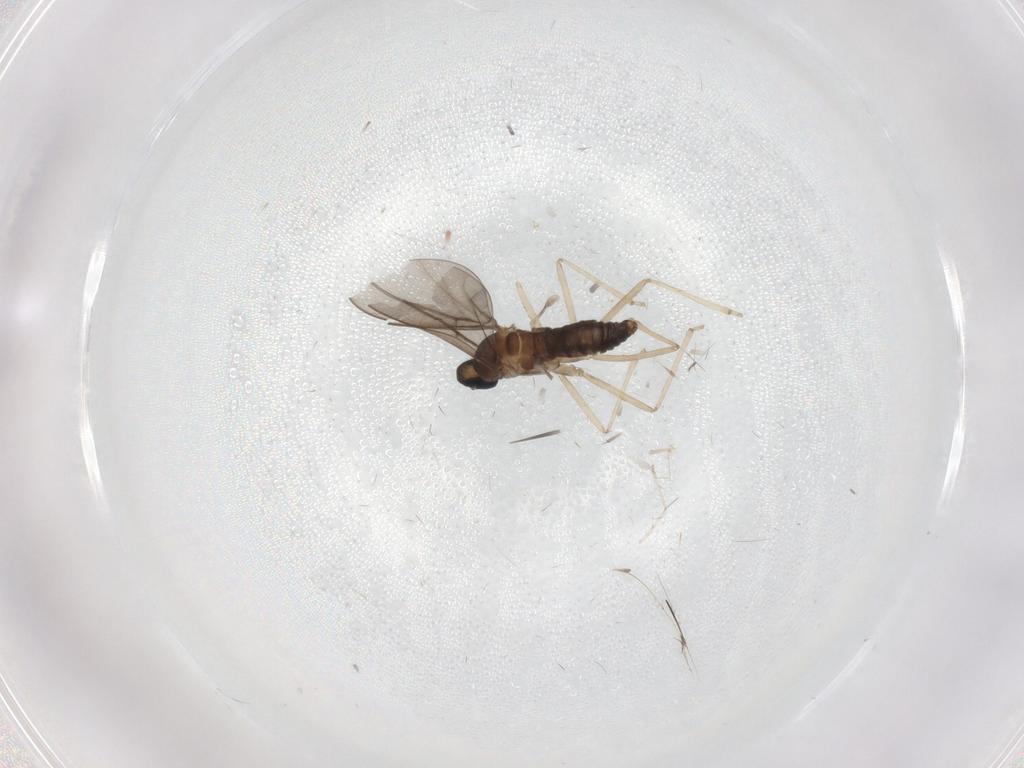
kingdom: Animalia
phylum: Arthropoda
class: Insecta
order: Diptera
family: Cecidomyiidae
